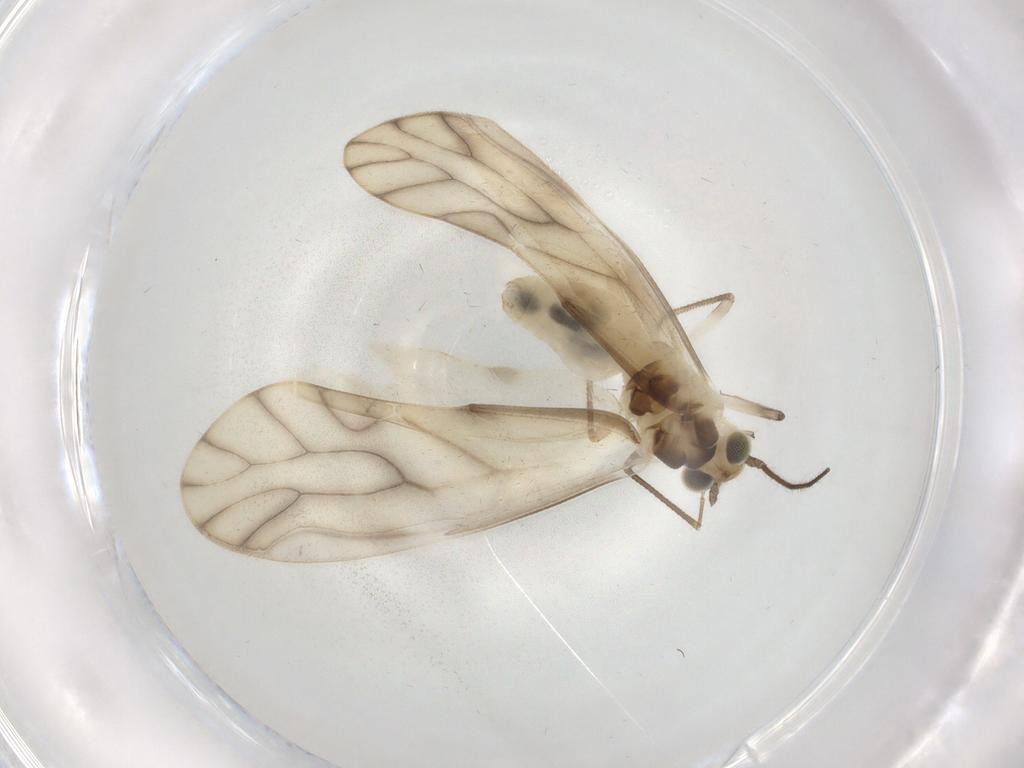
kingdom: Animalia
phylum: Arthropoda
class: Insecta
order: Psocodea
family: Caeciliusidae
